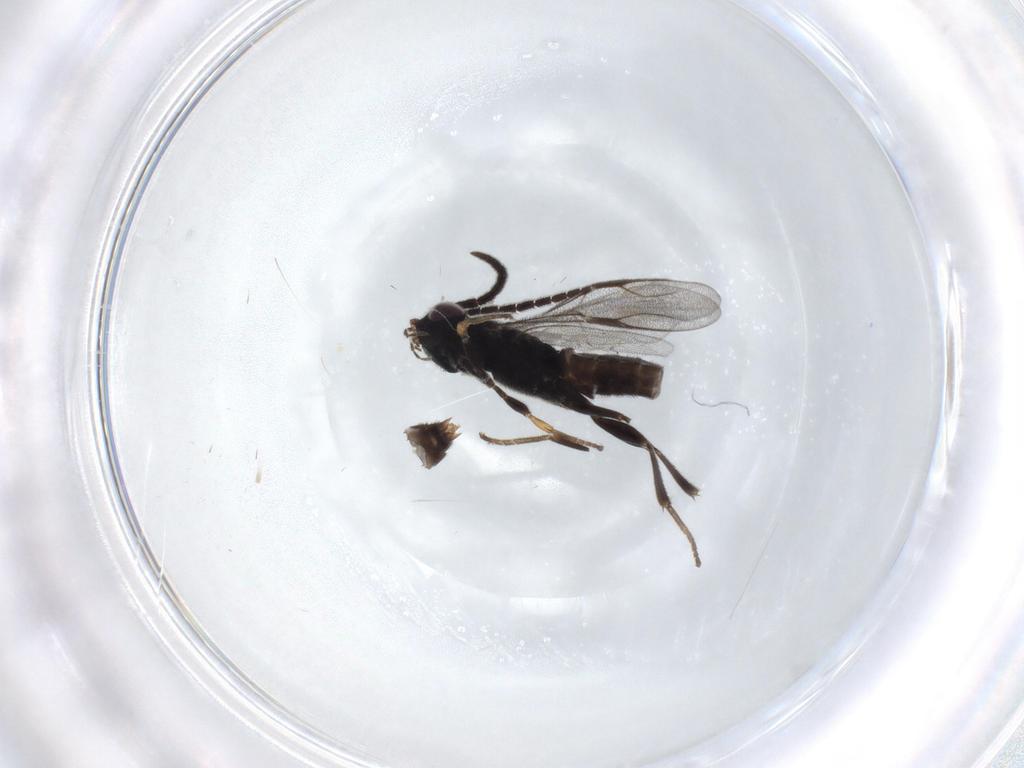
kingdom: Animalia
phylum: Arthropoda
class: Insecta
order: Hymenoptera
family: Dryinidae
